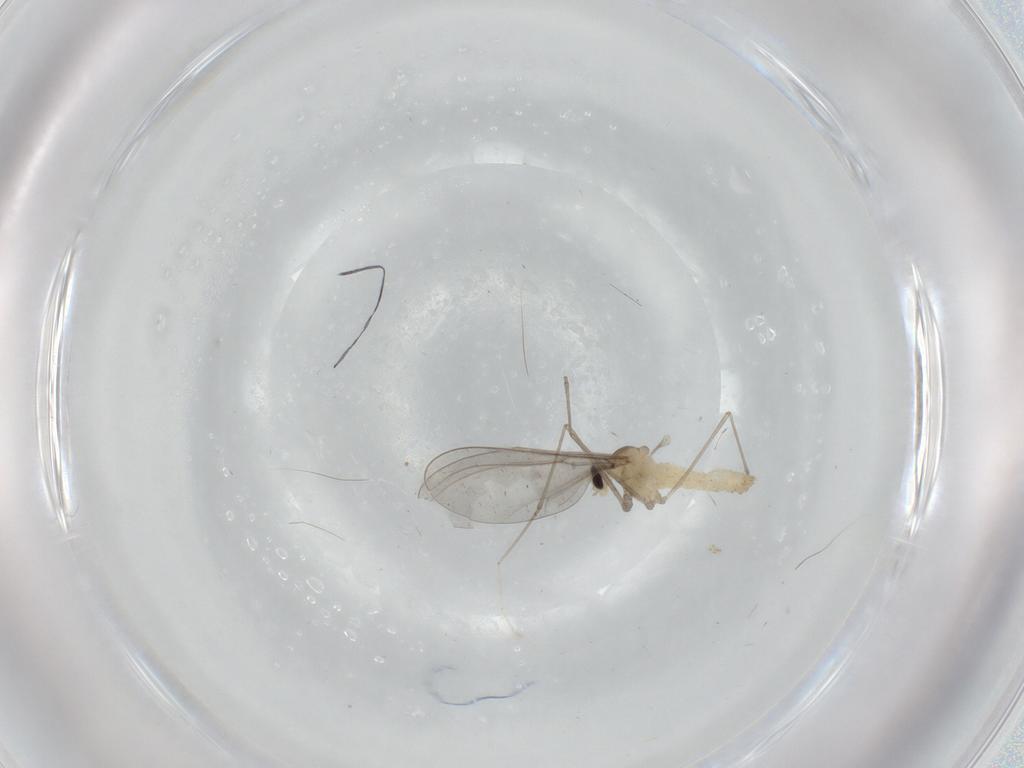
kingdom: Animalia
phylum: Arthropoda
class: Insecta
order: Diptera
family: Cecidomyiidae
